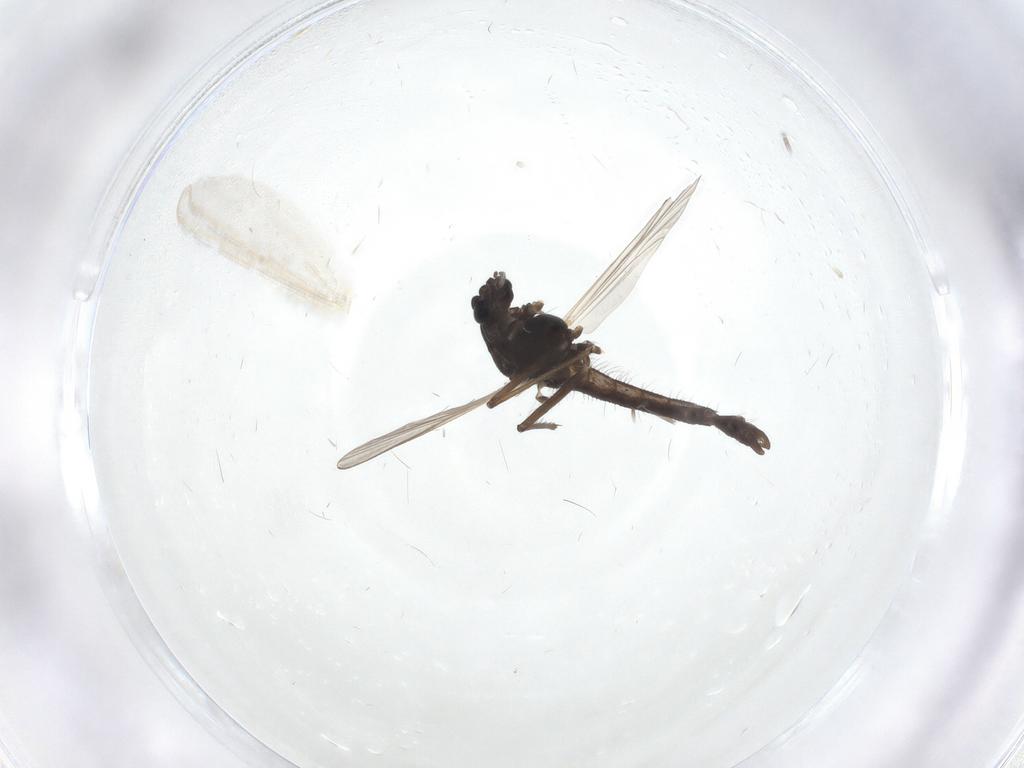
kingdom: Animalia
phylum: Arthropoda
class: Insecta
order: Diptera
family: Chironomidae
